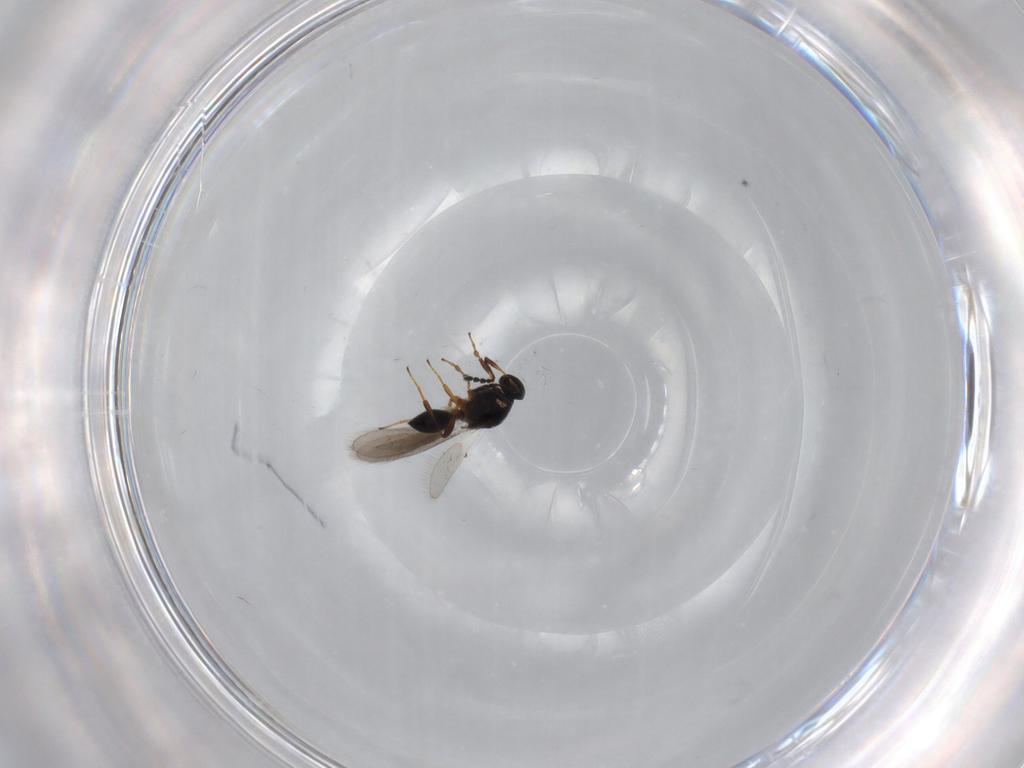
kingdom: Animalia
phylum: Arthropoda
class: Insecta
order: Hymenoptera
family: Platygastridae
